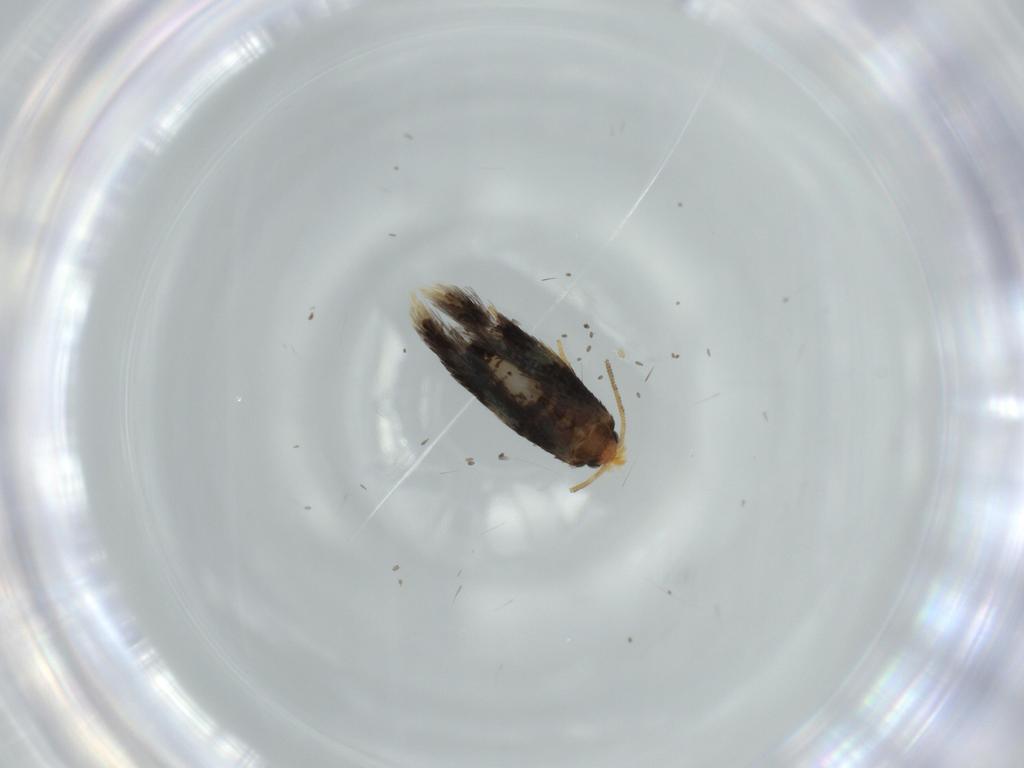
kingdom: Animalia
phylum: Arthropoda
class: Insecta
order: Lepidoptera
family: Nepticulidae
